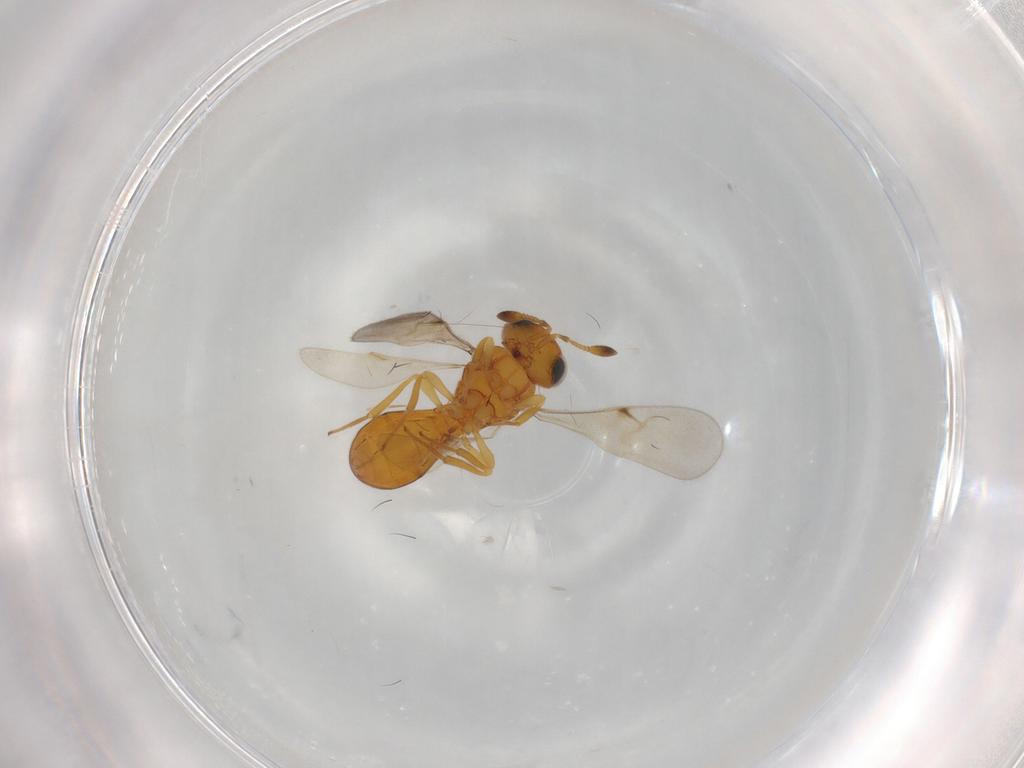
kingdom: Animalia
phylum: Arthropoda
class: Insecta
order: Hymenoptera
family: Scelionidae
